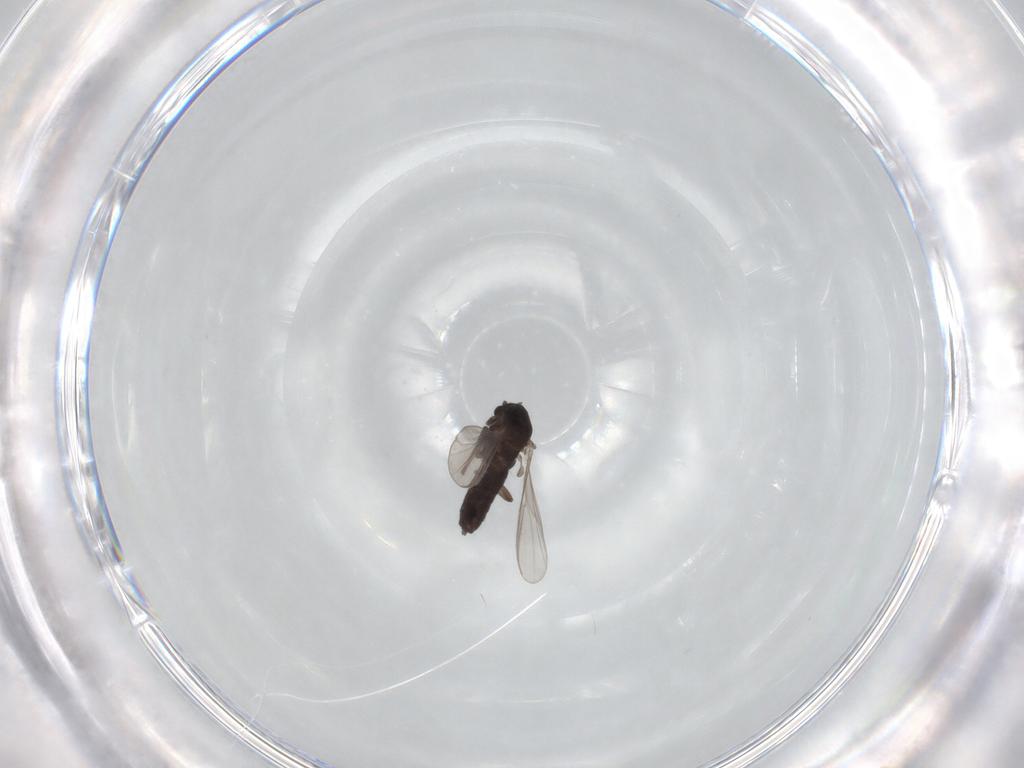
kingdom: Animalia
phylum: Arthropoda
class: Insecta
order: Diptera
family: Chironomidae
